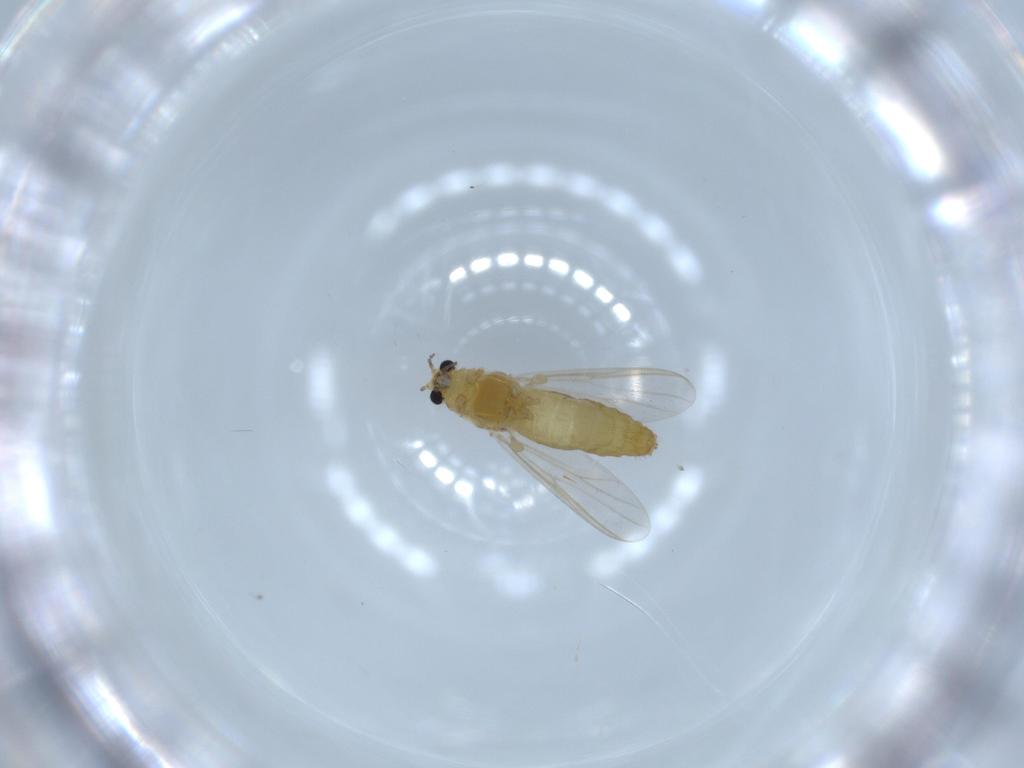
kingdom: Animalia
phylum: Arthropoda
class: Insecta
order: Diptera
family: Chironomidae
